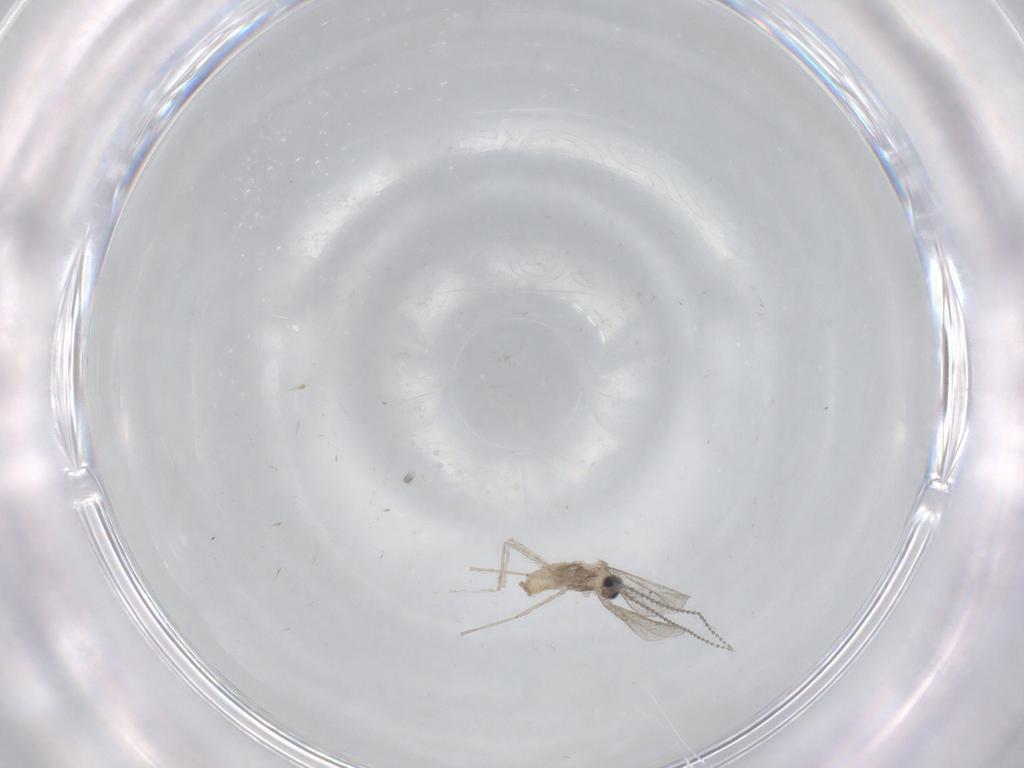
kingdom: Animalia
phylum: Arthropoda
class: Insecta
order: Diptera
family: Cecidomyiidae
